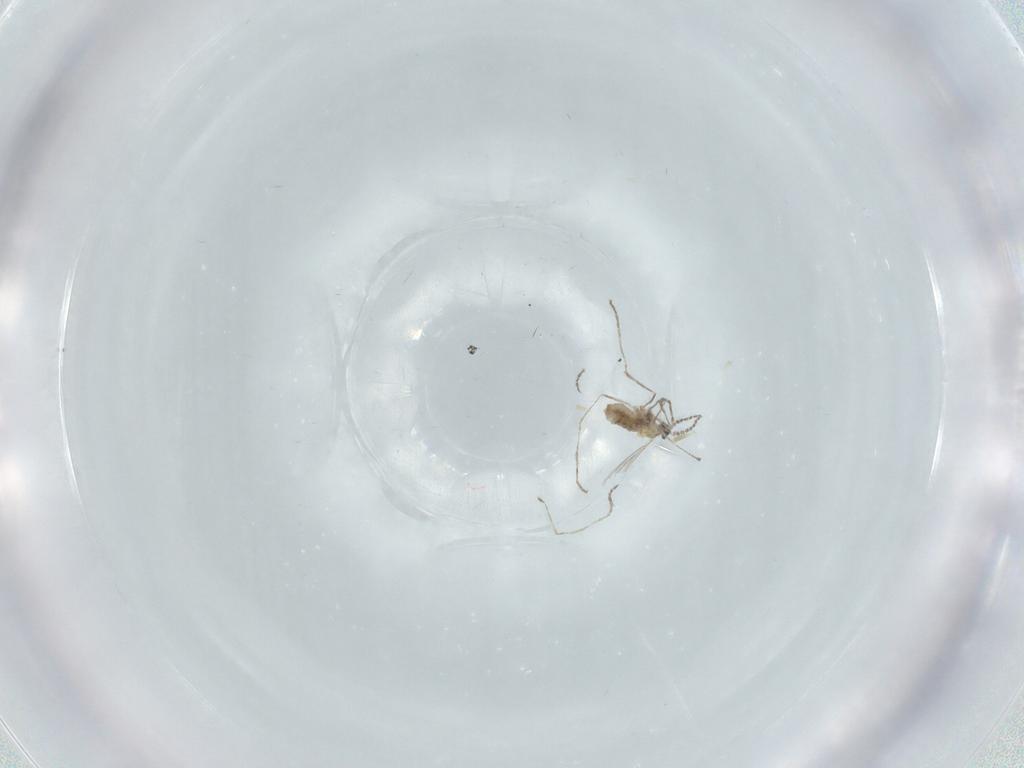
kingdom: Animalia
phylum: Arthropoda
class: Insecta
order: Diptera
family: Cecidomyiidae
